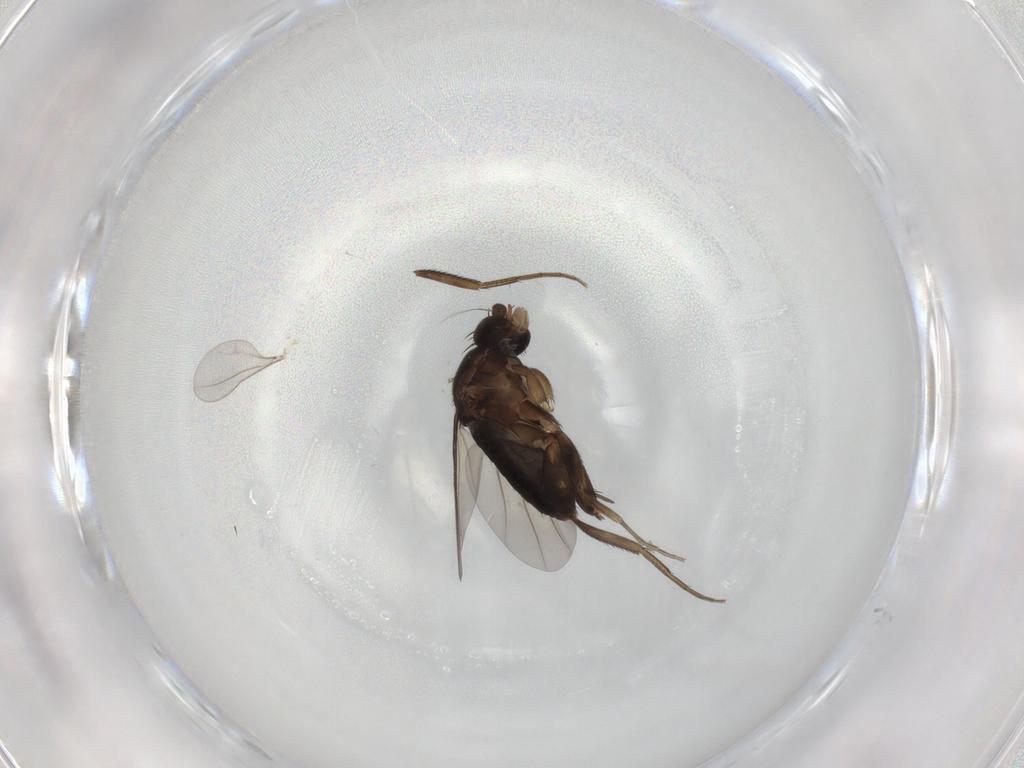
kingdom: Animalia
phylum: Arthropoda
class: Insecta
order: Diptera
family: Phoridae
